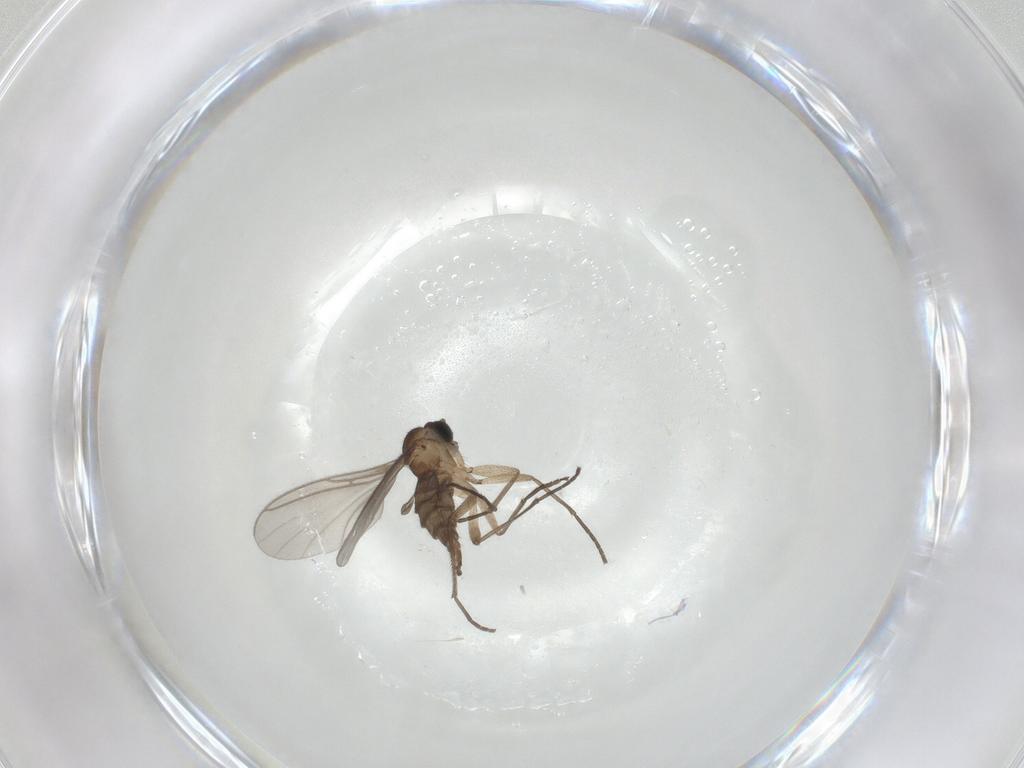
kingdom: Animalia
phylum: Arthropoda
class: Insecta
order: Diptera
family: Sciaridae
